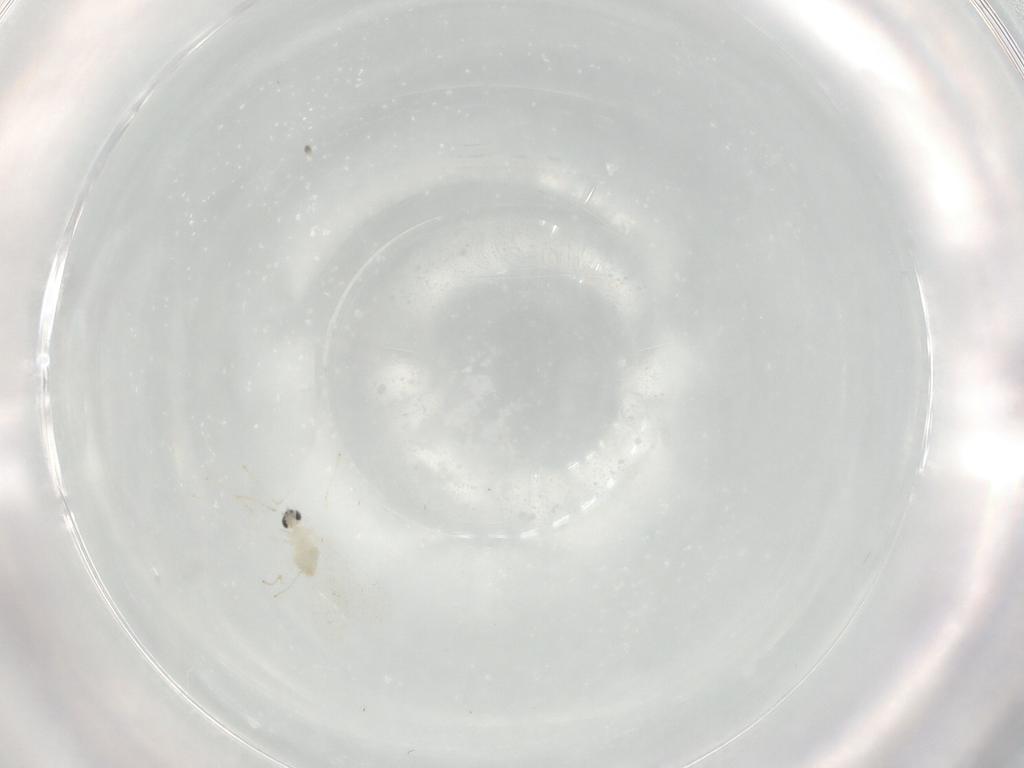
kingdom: Animalia
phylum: Arthropoda
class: Insecta
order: Diptera
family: Cecidomyiidae
